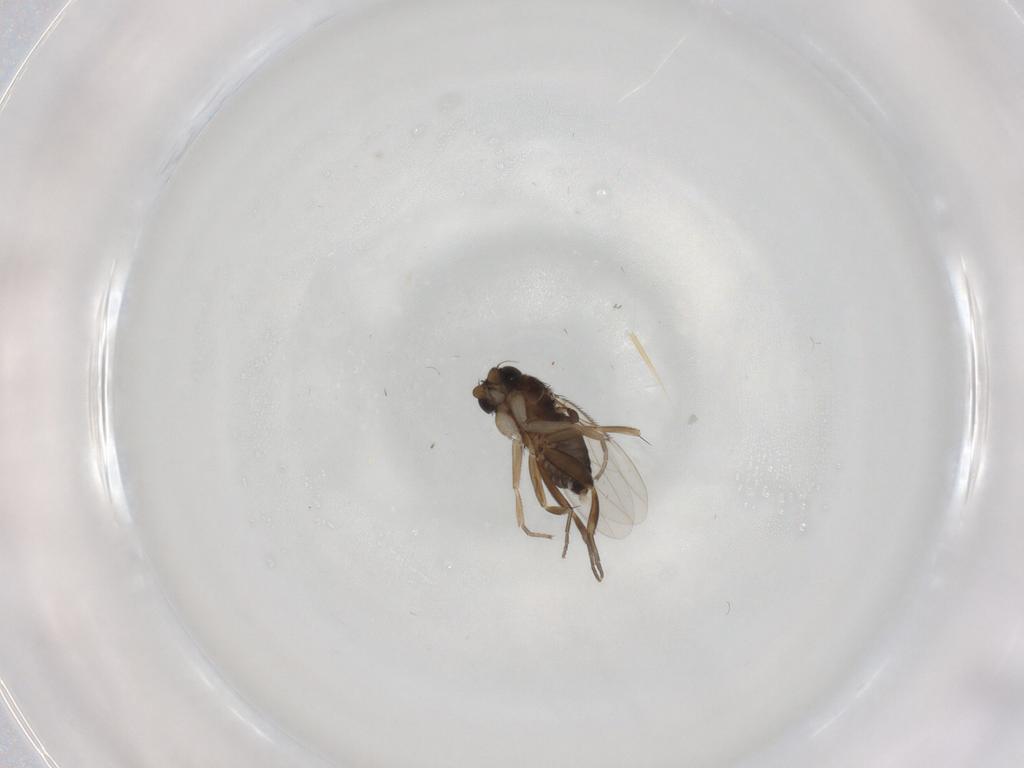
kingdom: Animalia
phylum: Arthropoda
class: Insecta
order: Diptera
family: Phoridae
